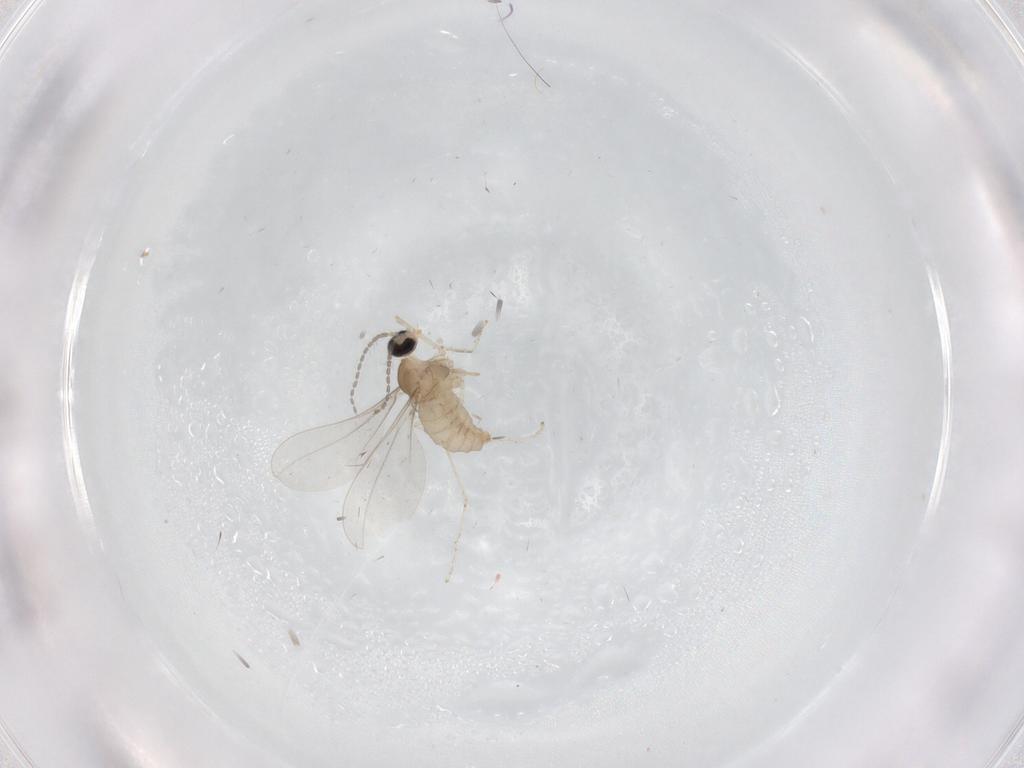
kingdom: Animalia
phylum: Arthropoda
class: Insecta
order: Diptera
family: Cecidomyiidae
